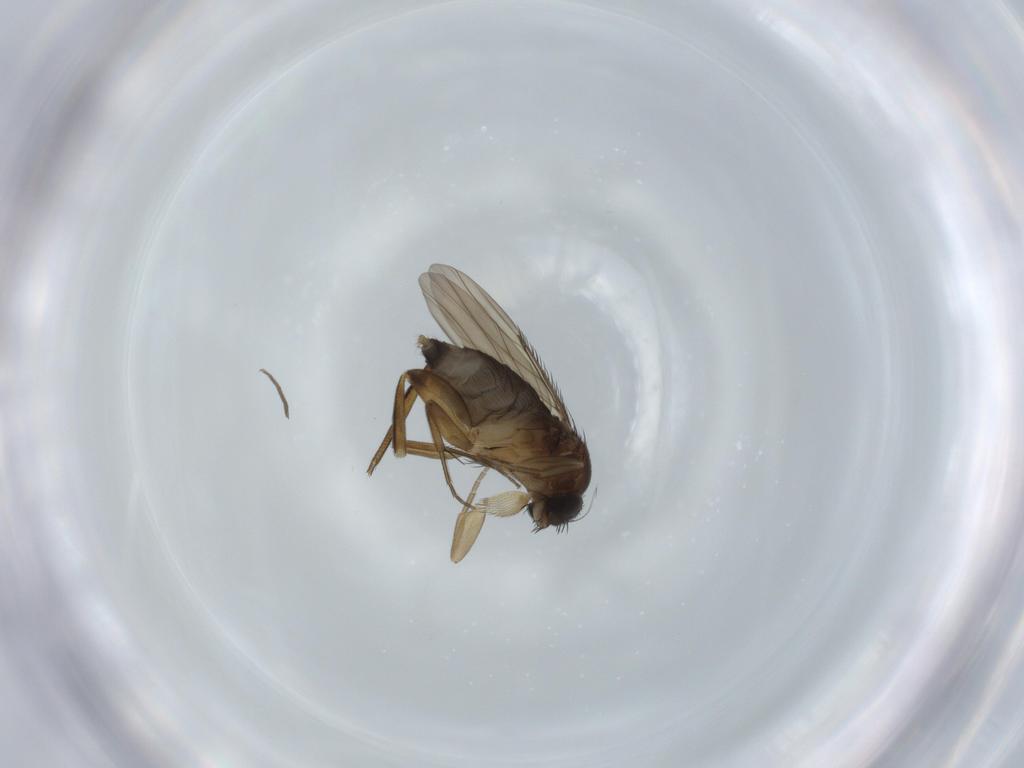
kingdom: Animalia
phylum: Arthropoda
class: Insecta
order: Diptera
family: Phoridae
